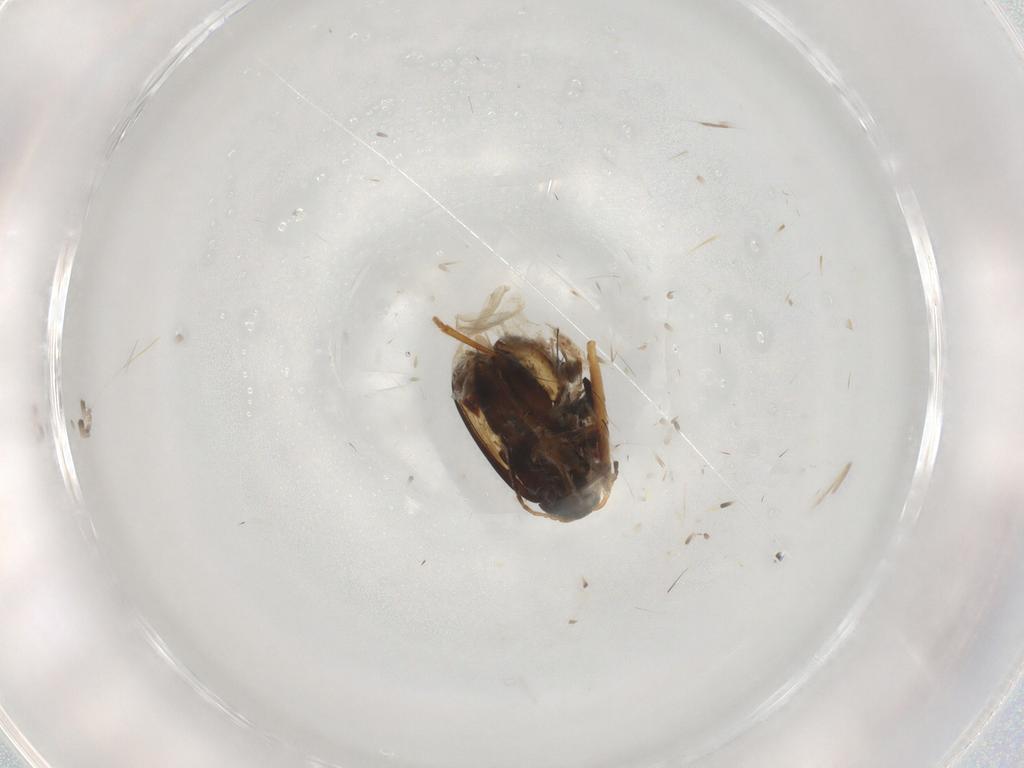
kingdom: Animalia
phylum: Arthropoda
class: Insecta
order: Coleoptera
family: Chrysomelidae
